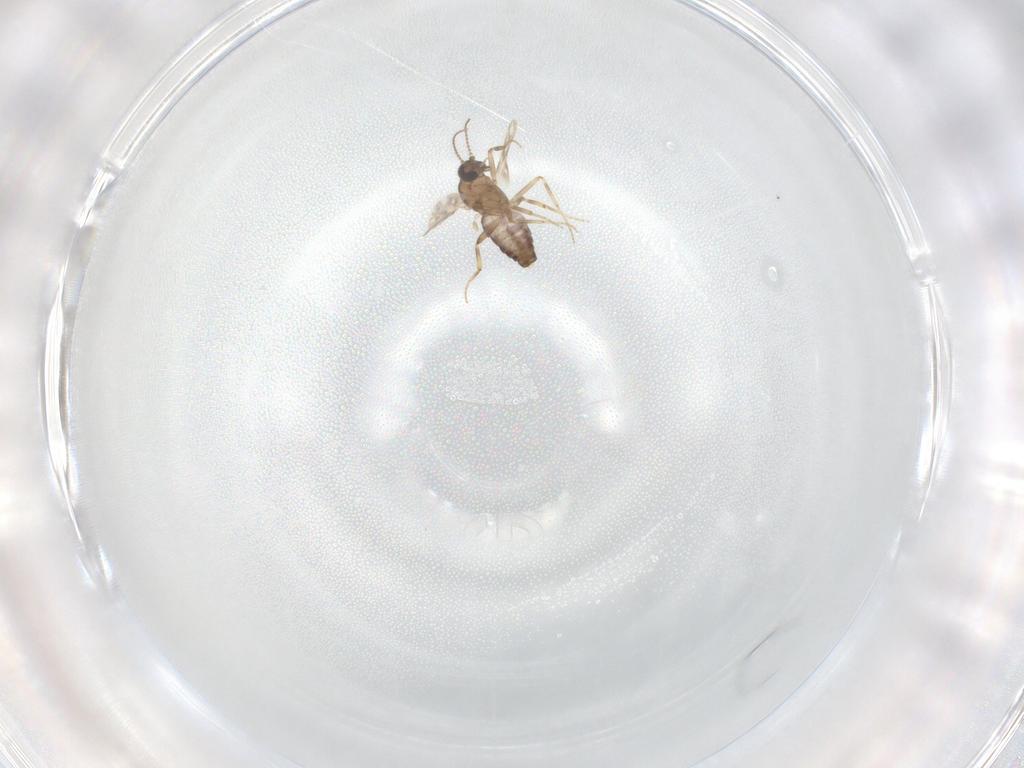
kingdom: Animalia
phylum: Arthropoda
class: Insecta
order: Diptera
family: Ceratopogonidae
